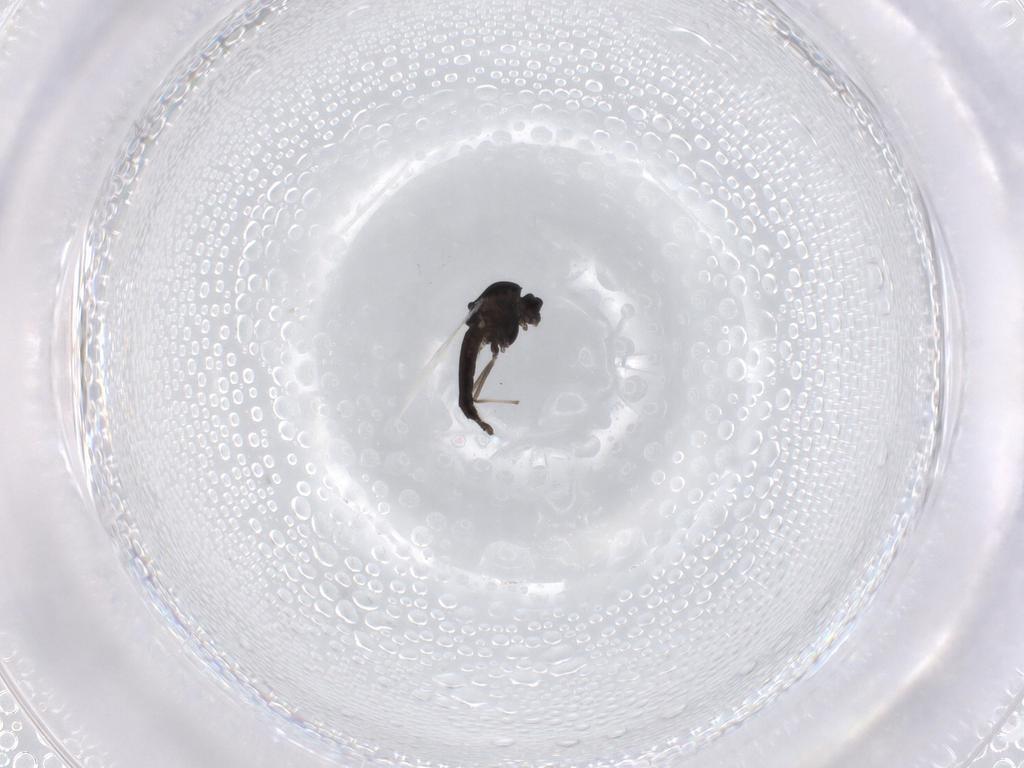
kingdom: Animalia
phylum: Arthropoda
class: Insecta
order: Diptera
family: Chironomidae
